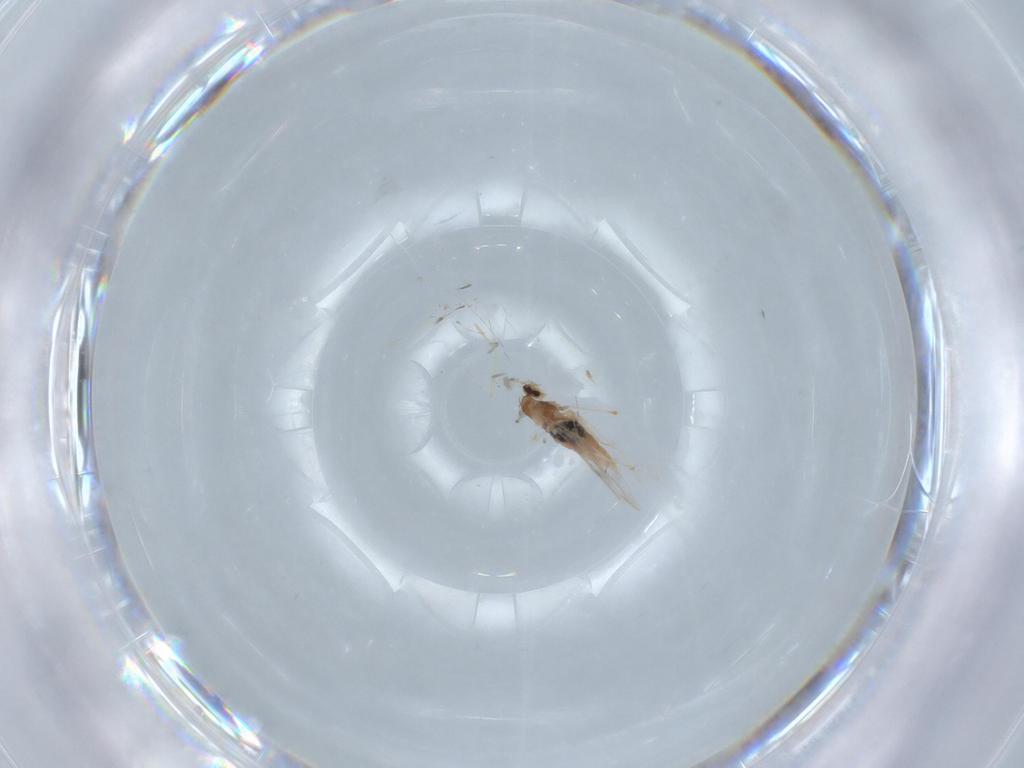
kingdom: Animalia
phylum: Arthropoda
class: Insecta
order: Diptera
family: Cecidomyiidae
